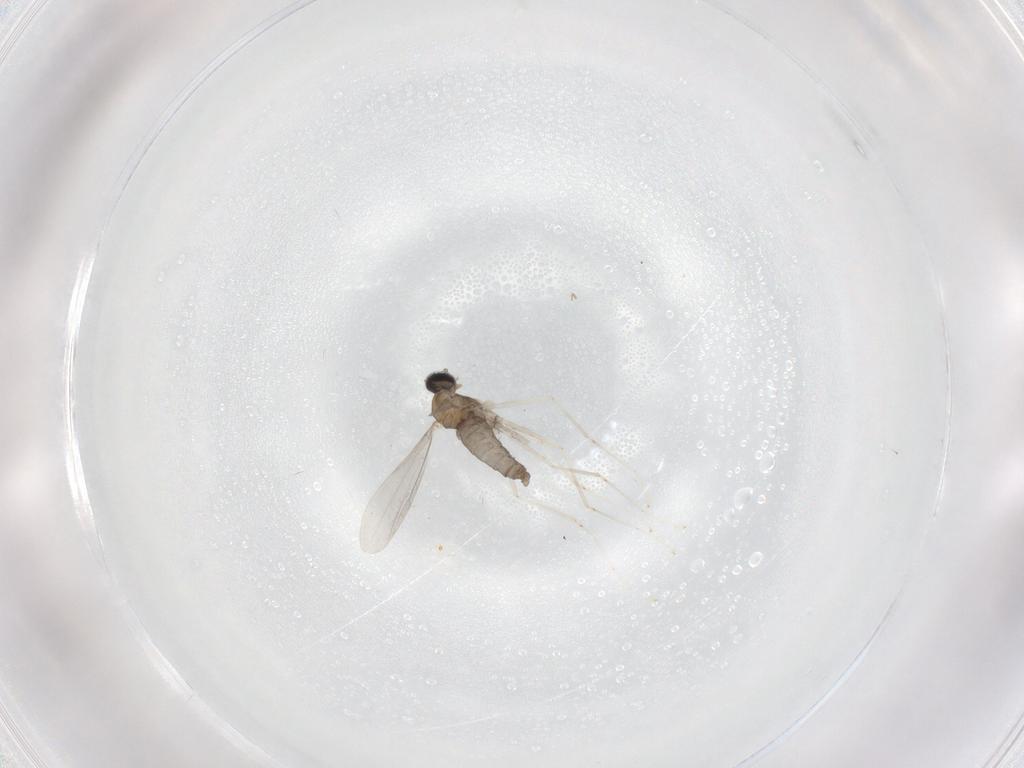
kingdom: Animalia
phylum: Arthropoda
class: Insecta
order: Diptera
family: Cecidomyiidae
